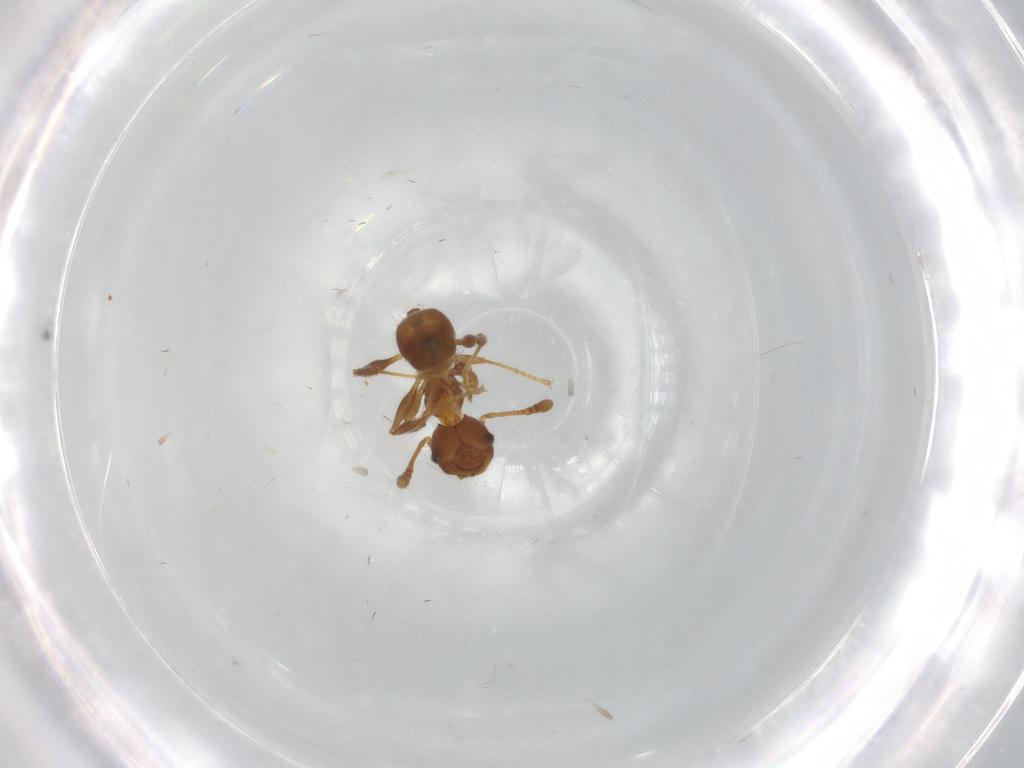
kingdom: Animalia
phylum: Arthropoda
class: Insecta
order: Hymenoptera
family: Formicidae
